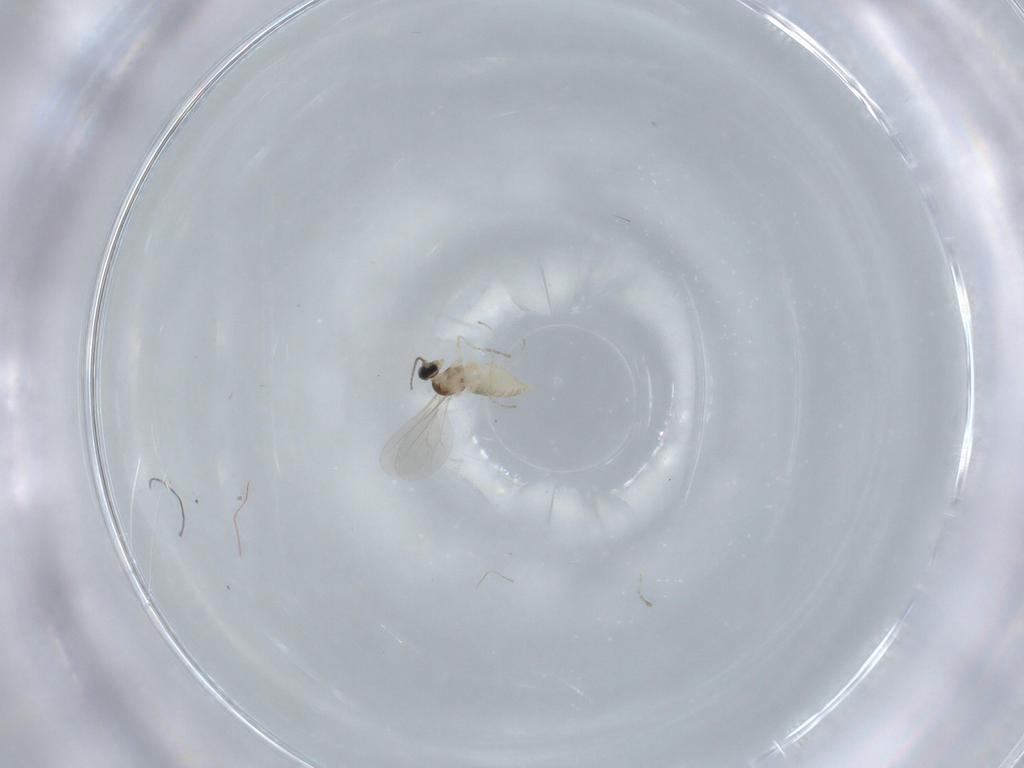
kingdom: Animalia
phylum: Arthropoda
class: Insecta
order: Diptera
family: Cecidomyiidae
